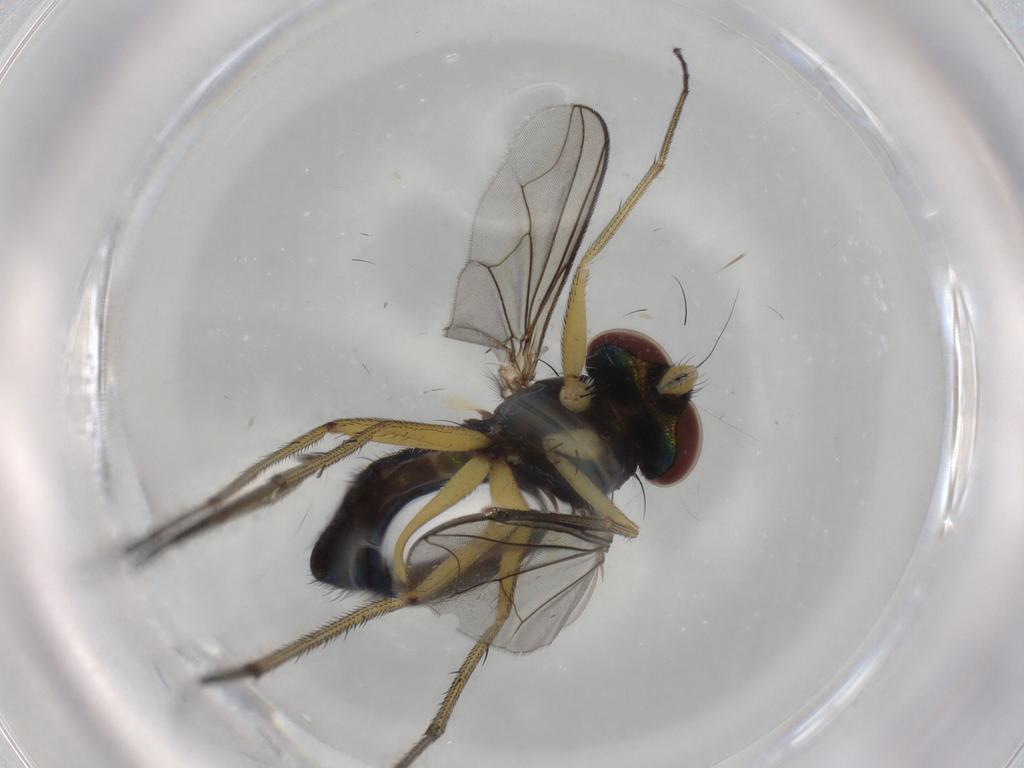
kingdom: Animalia
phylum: Arthropoda
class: Insecta
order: Diptera
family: Dolichopodidae
